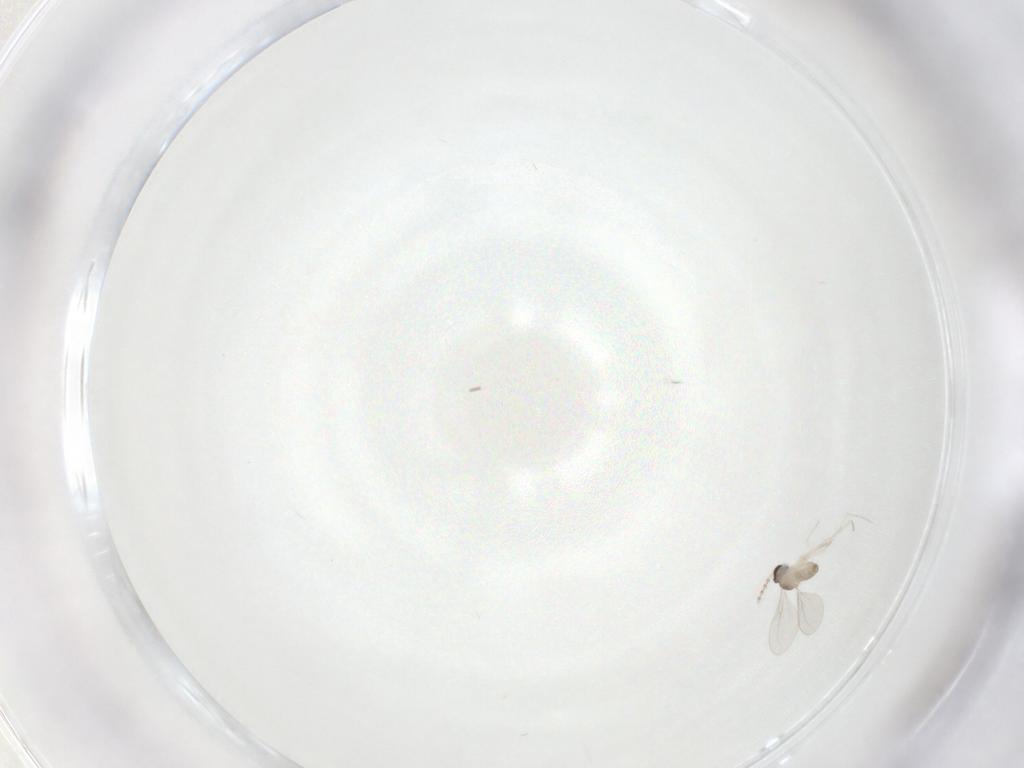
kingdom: Animalia
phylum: Arthropoda
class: Insecta
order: Diptera
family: Cecidomyiidae
